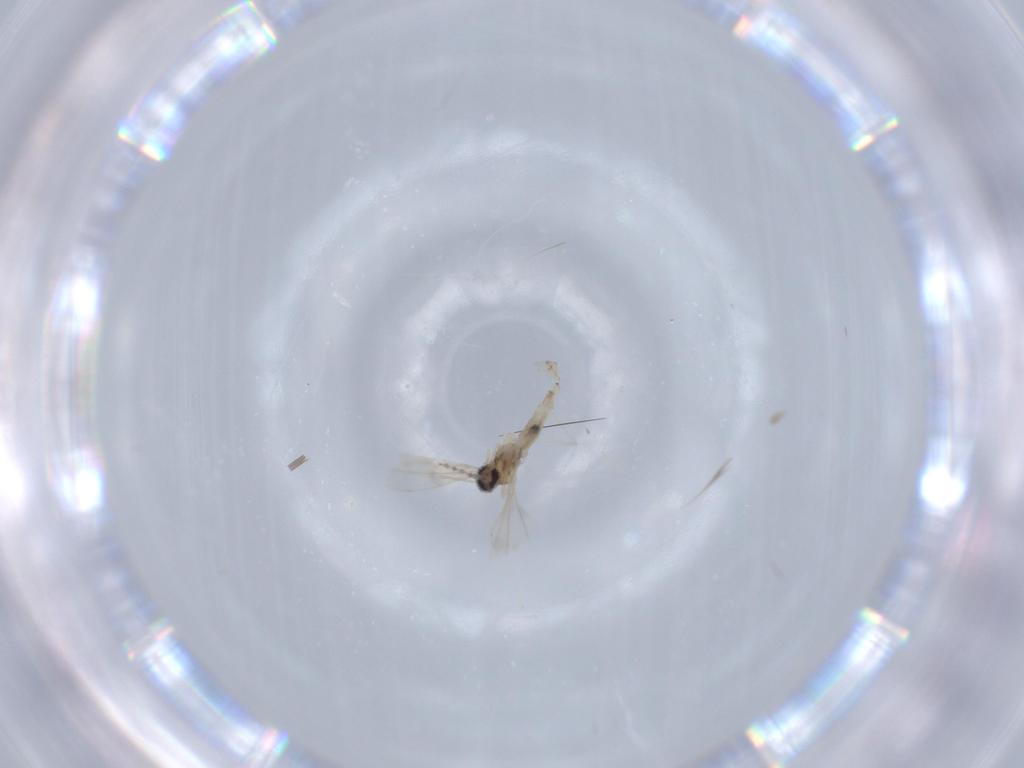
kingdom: Animalia
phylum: Arthropoda
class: Insecta
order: Diptera
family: Cecidomyiidae
